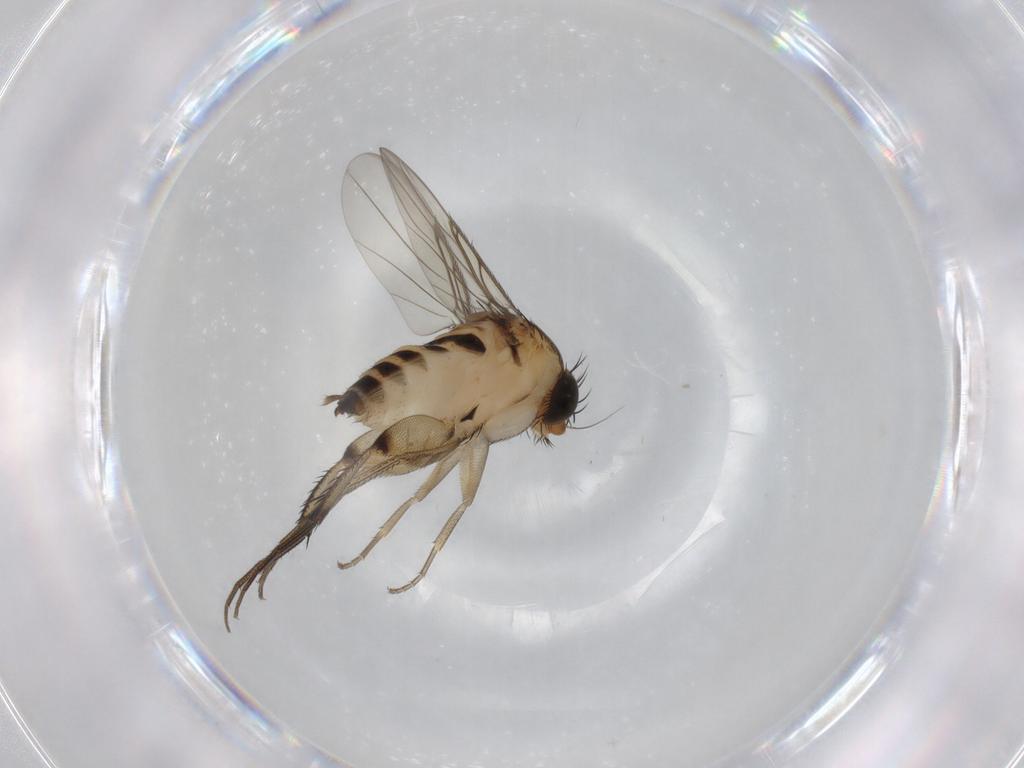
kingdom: Animalia
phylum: Arthropoda
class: Insecta
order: Diptera
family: Phoridae
